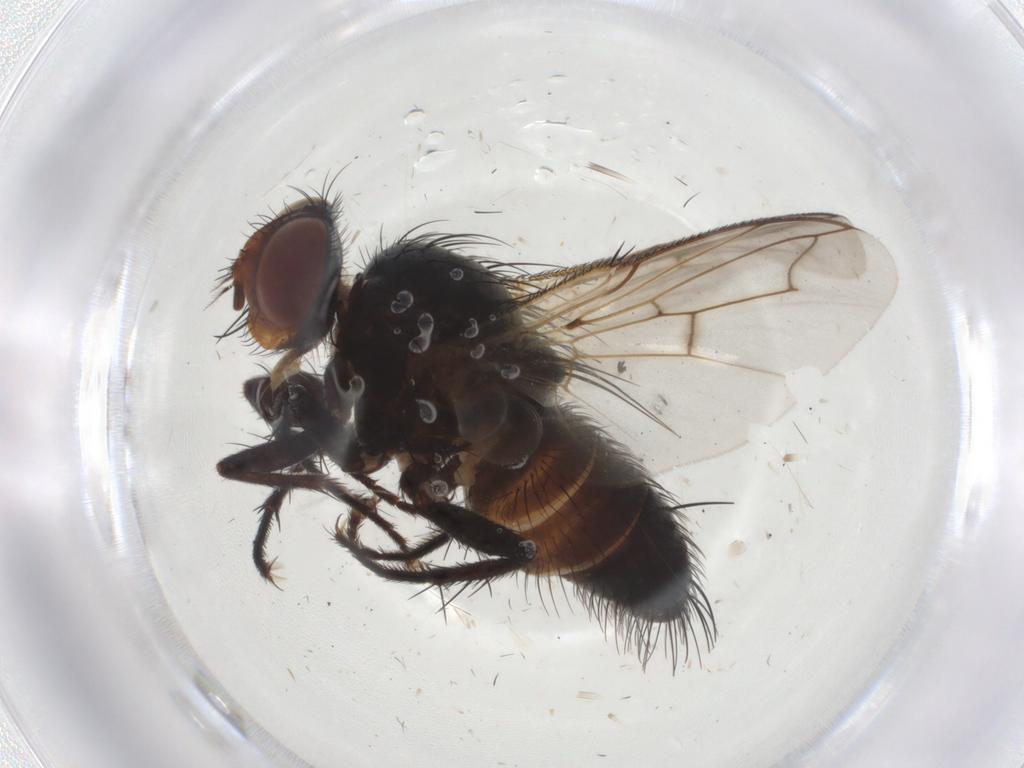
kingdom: Animalia
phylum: Arthropoda
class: Insecta
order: Diptera
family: Tachinidae
